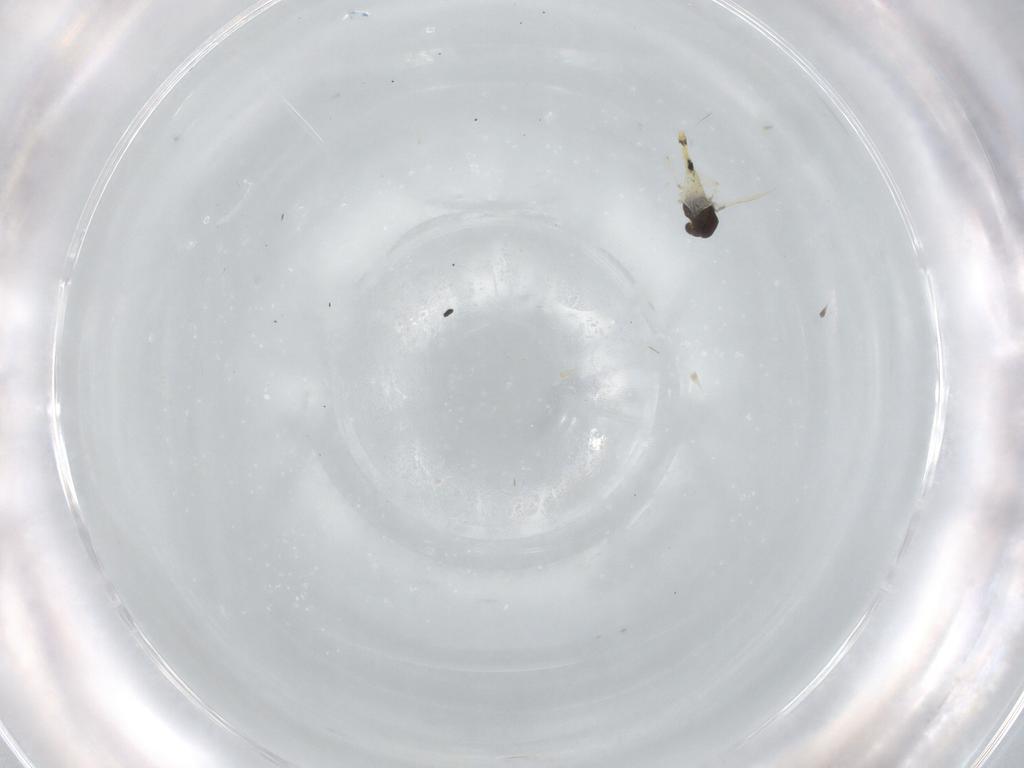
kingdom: Animalia
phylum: Arthropoda
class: Insecta
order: Diptera
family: Chironomidae
